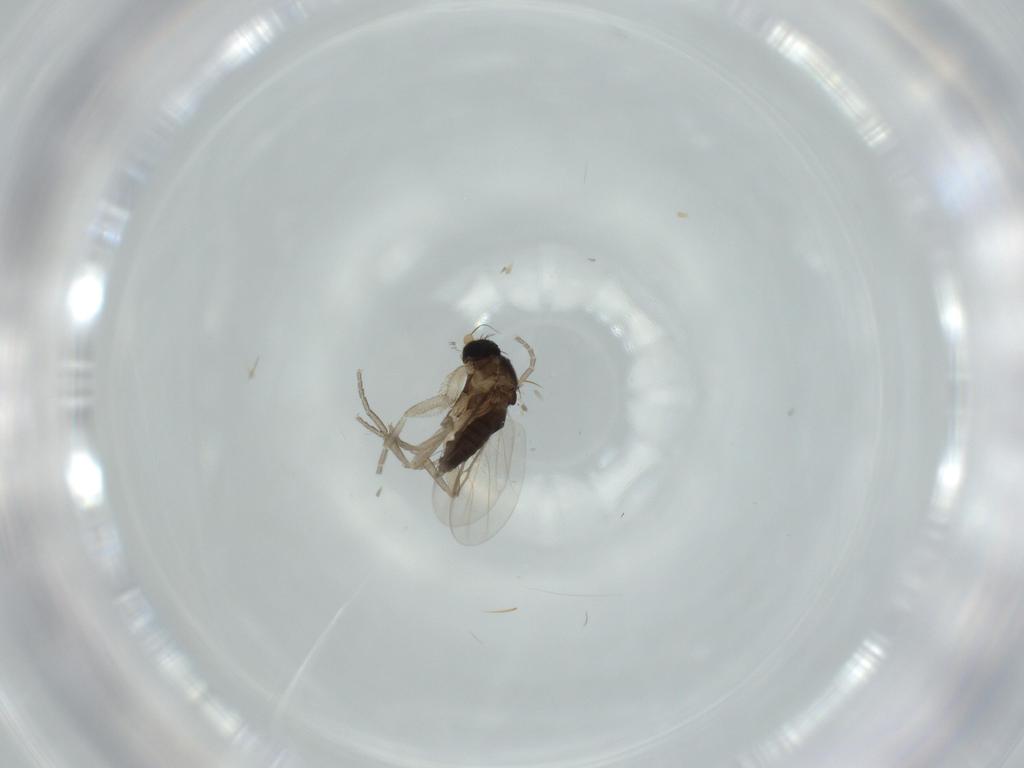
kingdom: Animalia
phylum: Arthropoda
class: Insecta
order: Diptera
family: Phoridae
